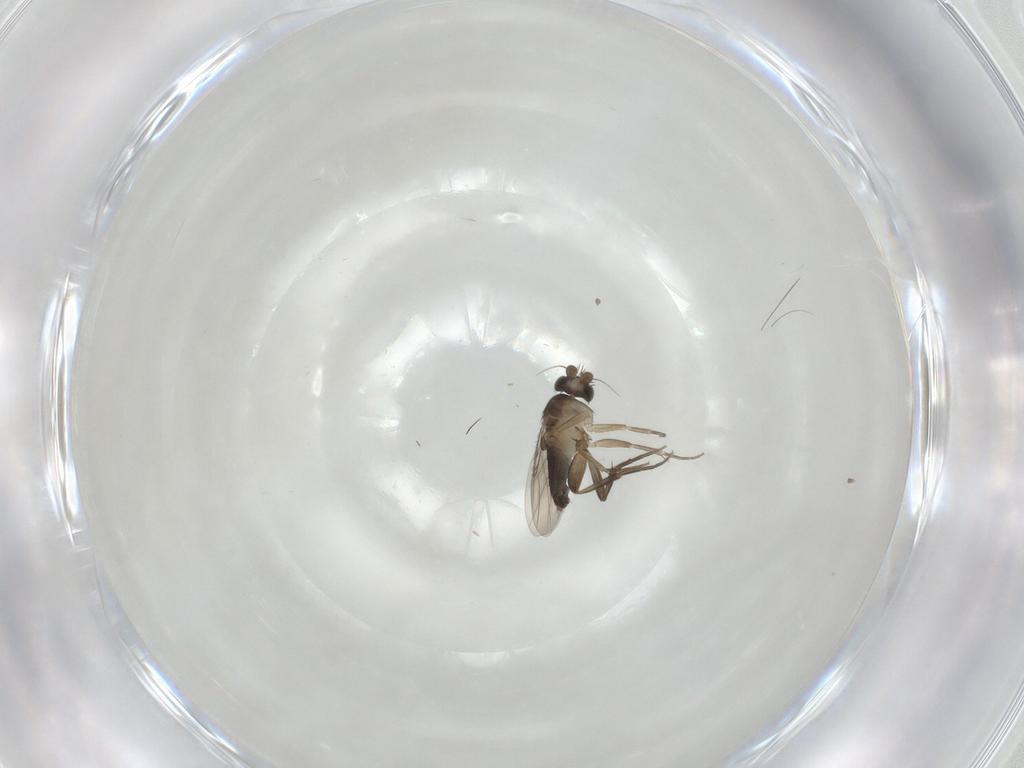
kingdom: Animalia
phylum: Arthropoda
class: Insecta
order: Diptera
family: Phoridae
